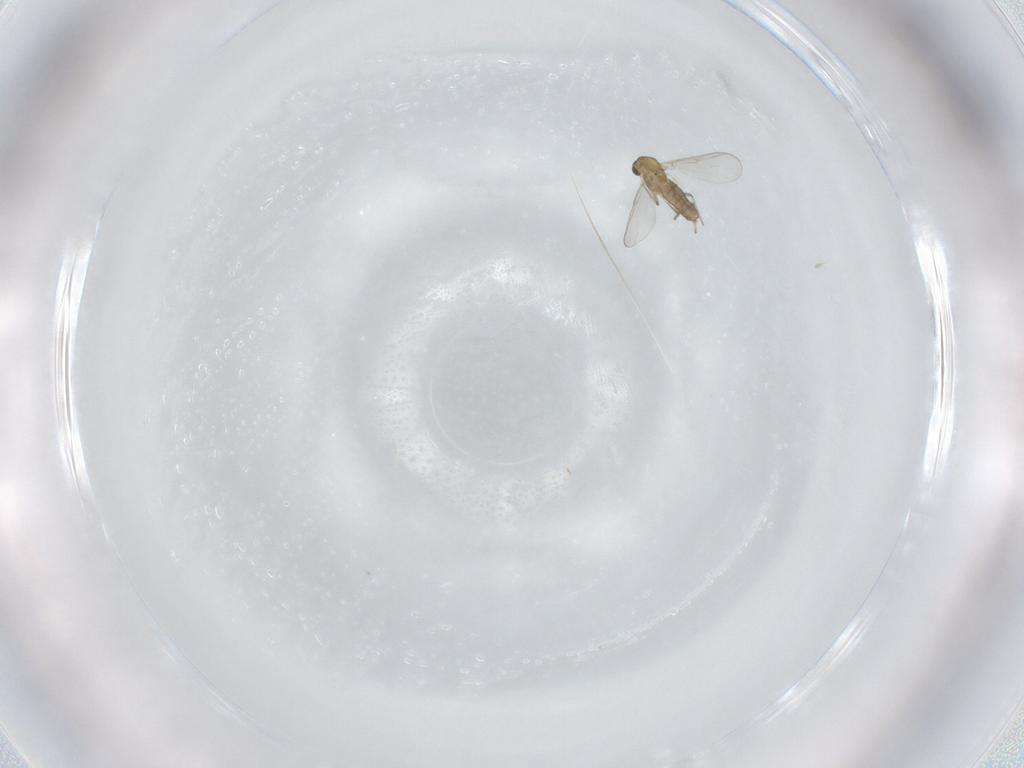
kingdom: Animalia
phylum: Arthropoda
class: Insecta
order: Diptera
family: Chironomidae
